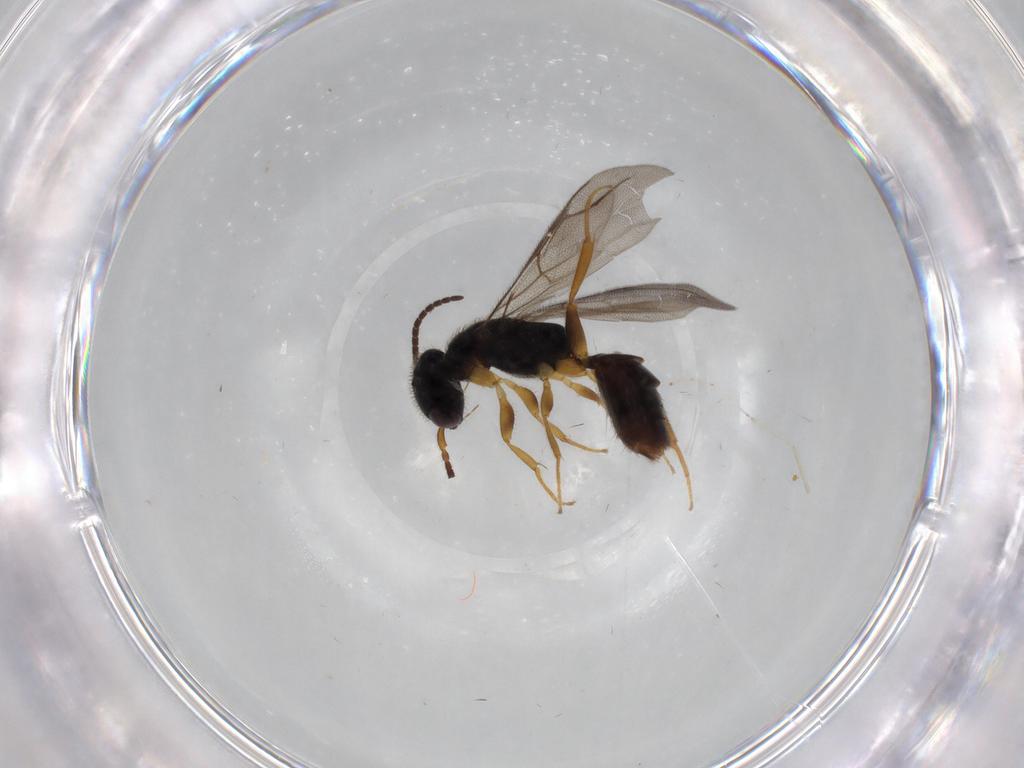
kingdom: Animalia
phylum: Arthropoda
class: Insecta
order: Hymenoptera
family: Bethylidae
